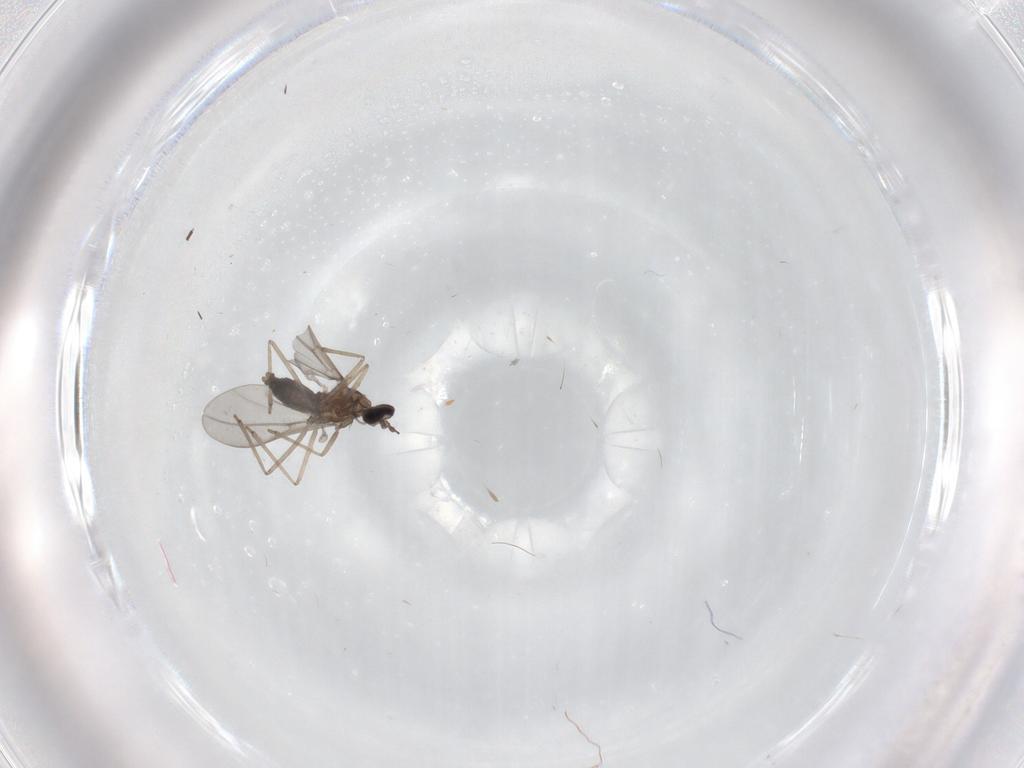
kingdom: Animalia
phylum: Arthropoda
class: Insecta
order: Diptera
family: Cecidomyiidae
